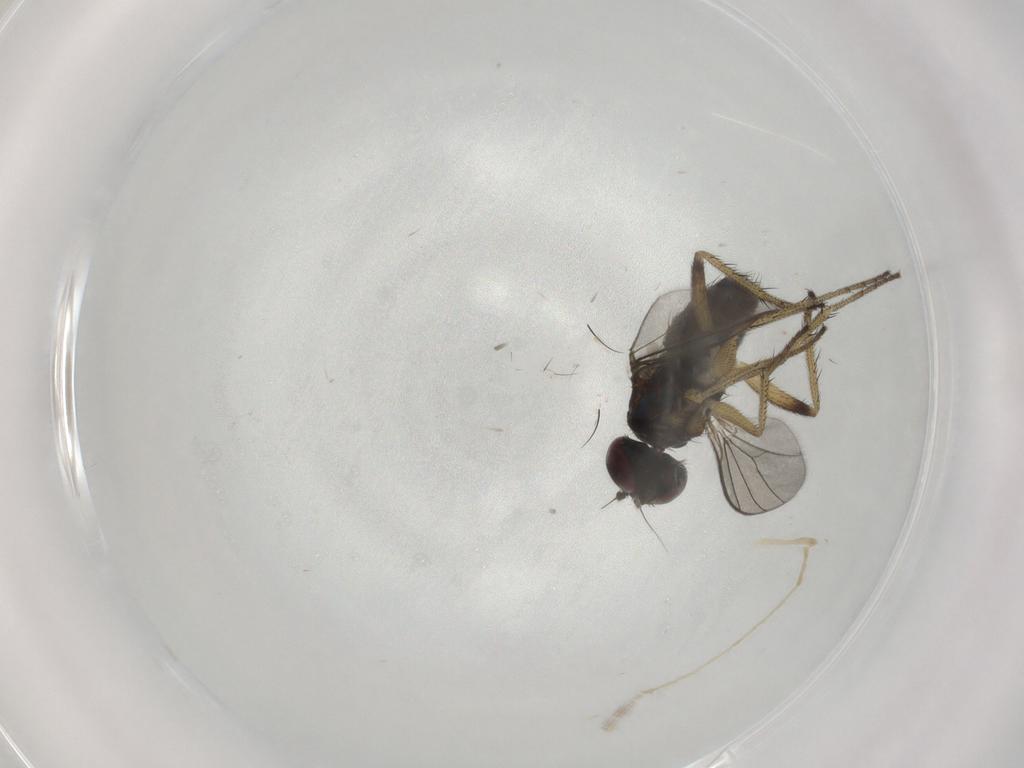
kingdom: Animalia
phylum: Arthropoda
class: Insecta
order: Diptera
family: Dolichopodidae
